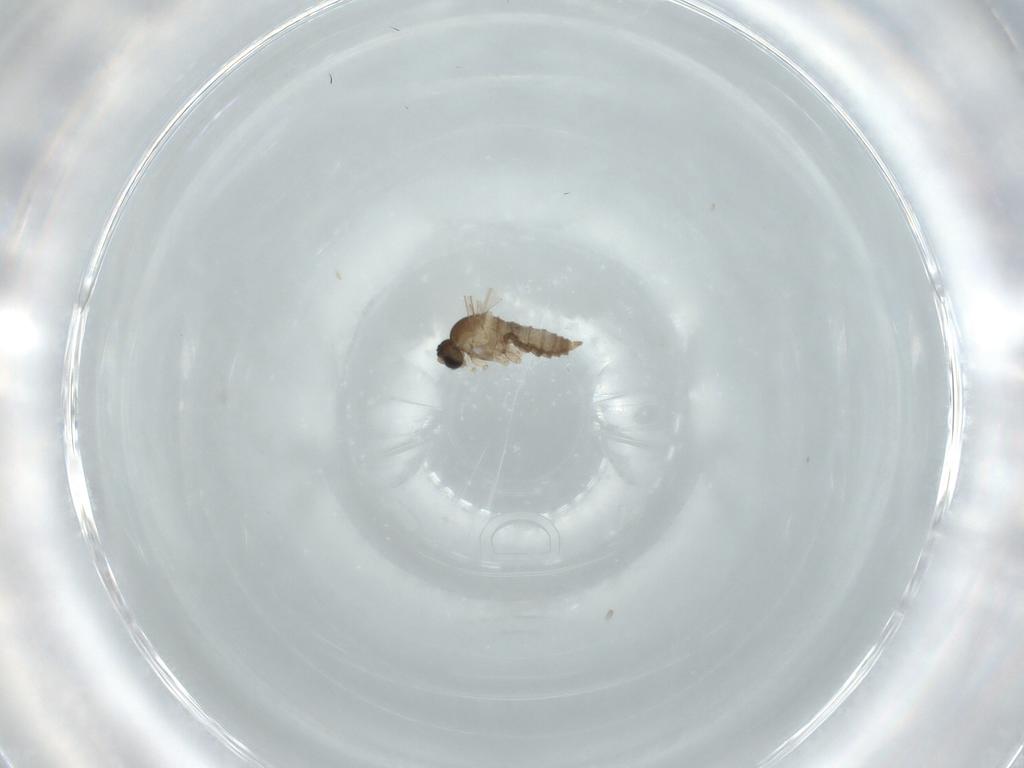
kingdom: Animalia
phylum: Arthropoda
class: Insecta
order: Diptera
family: Cecidomyiidae
